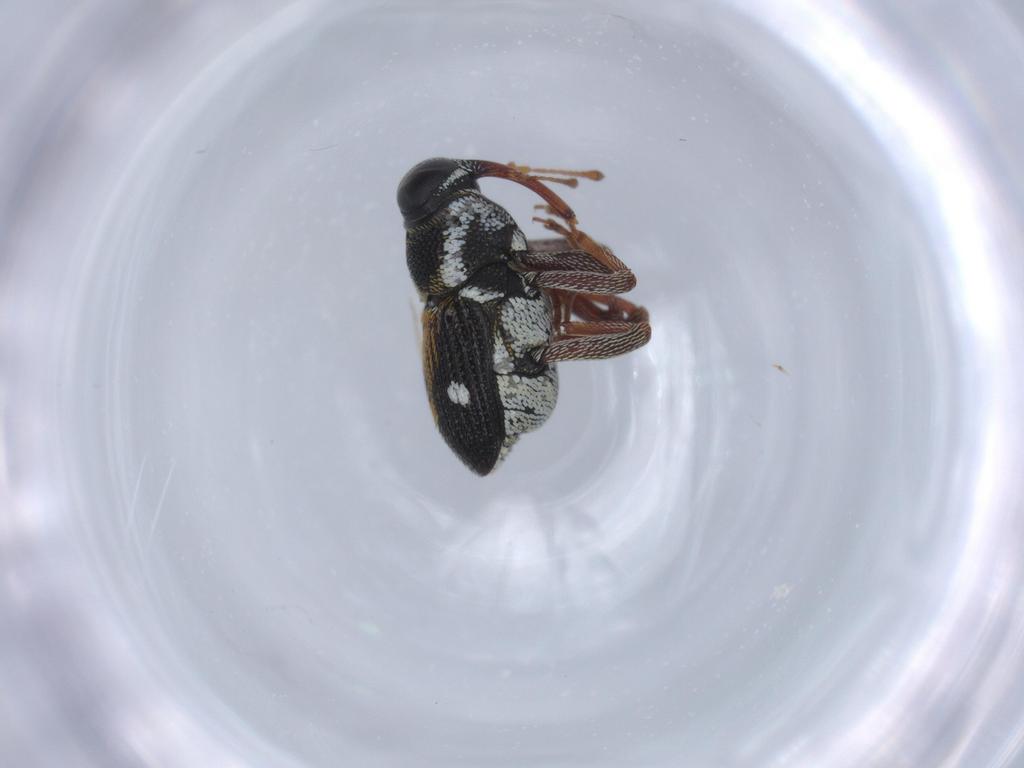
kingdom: Animalia
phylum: Arthropoda
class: Insecta
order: Coleoptera
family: Curculionidae
